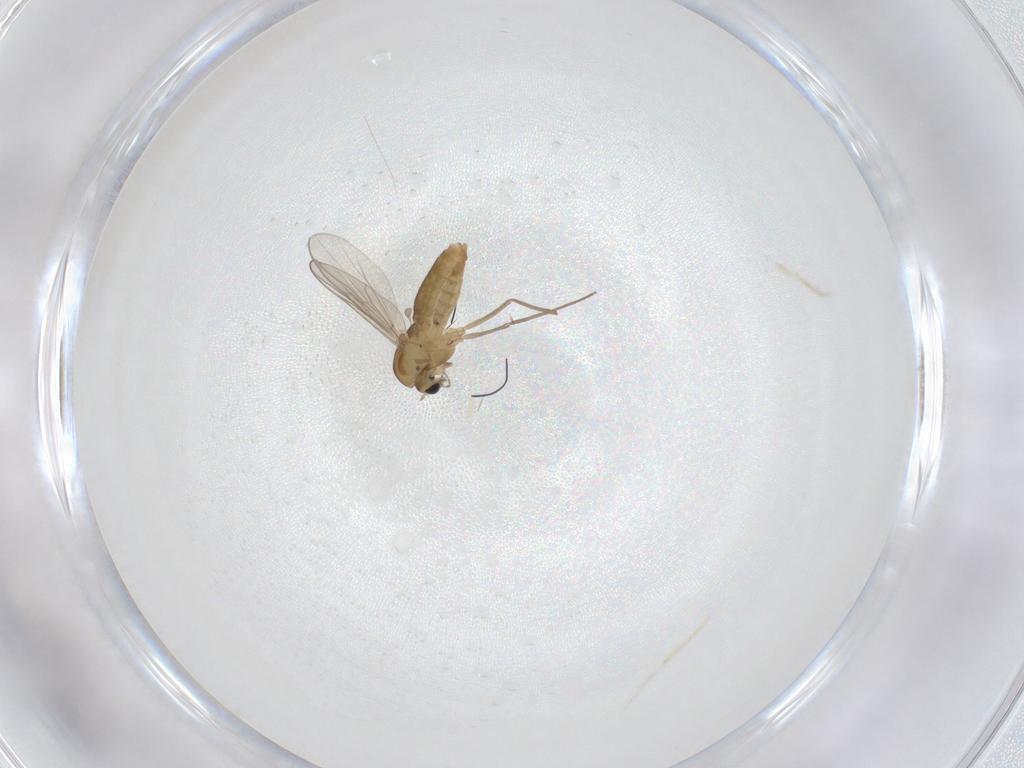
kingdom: Animalia
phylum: Arthropoda
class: Insecta
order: Diptera
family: Chironomidae
